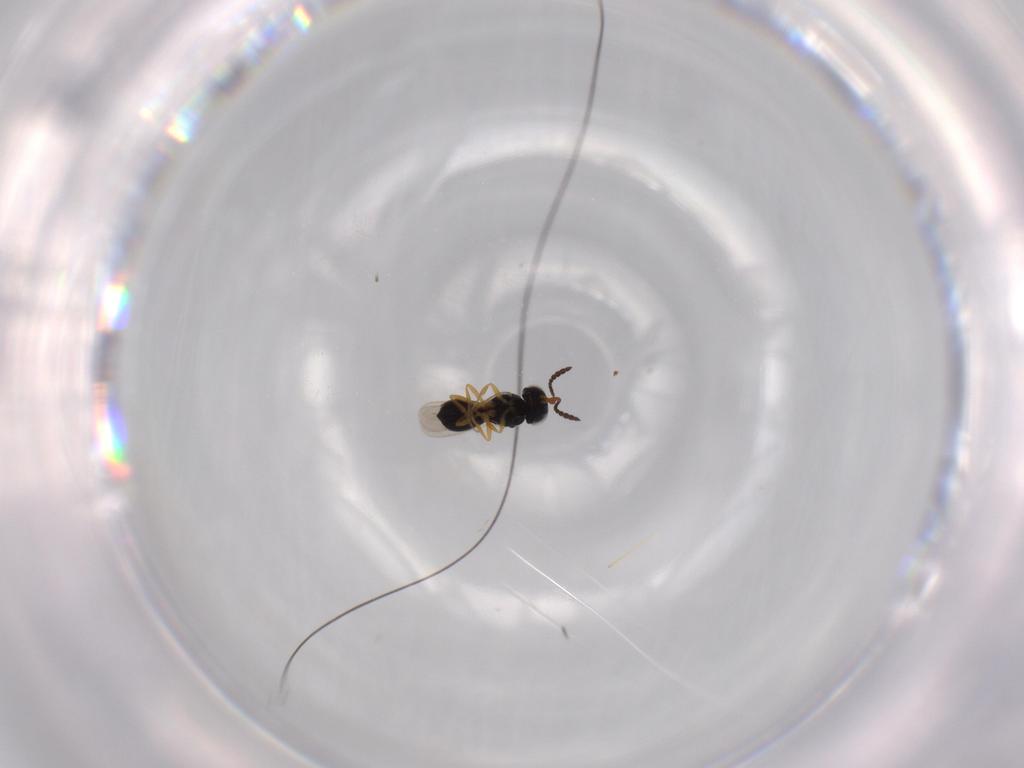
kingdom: Animalia
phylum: Arthropoda
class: Insecta
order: Hymenoptera
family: Scelionidae
